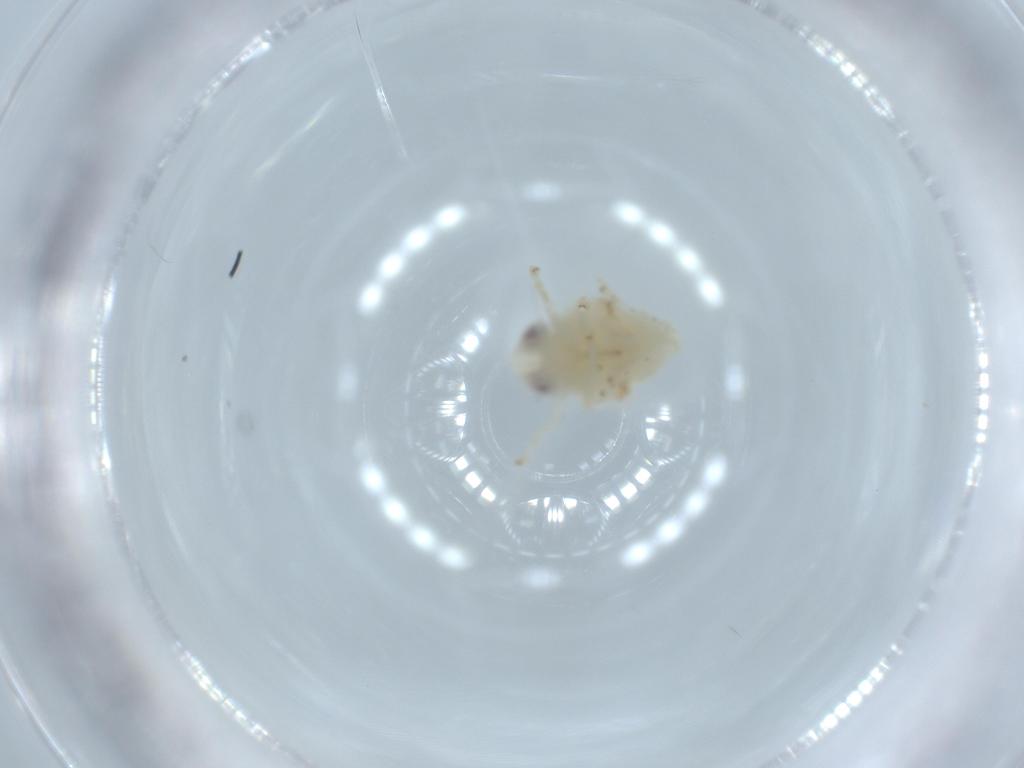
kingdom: Animalia
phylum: Arthropoda
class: Insecta
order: Hemiptera
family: Nogodinidae
